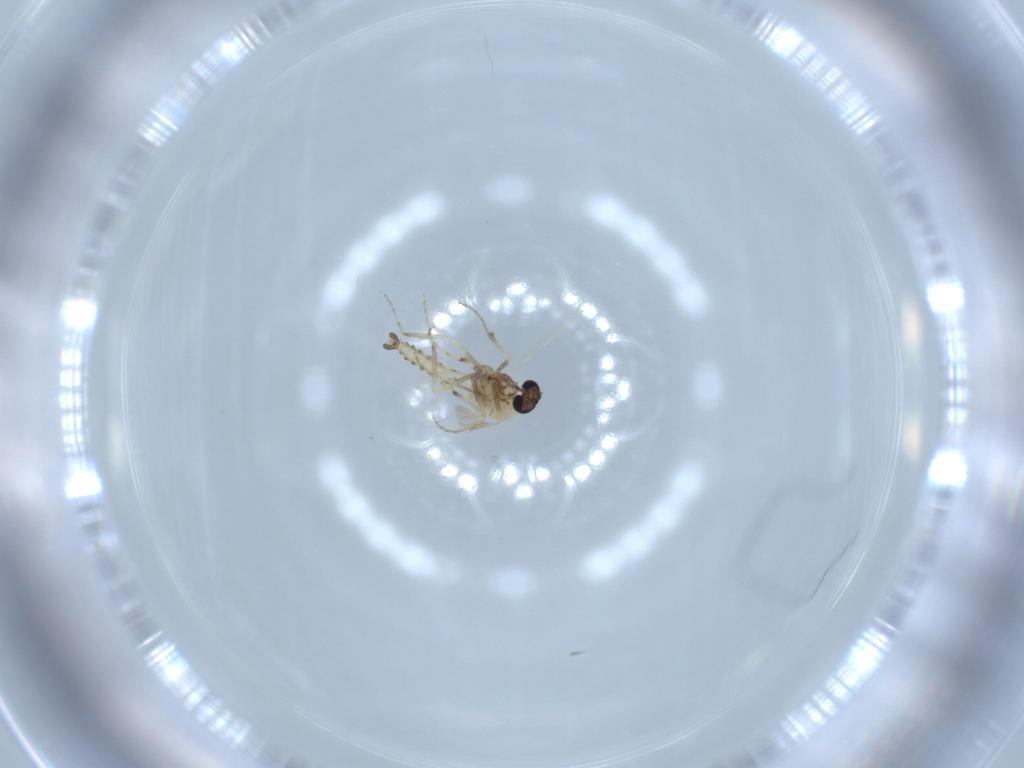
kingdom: Animalia
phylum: Arthropoda
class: Insecta
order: Diptera
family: Ceratopogonidae
